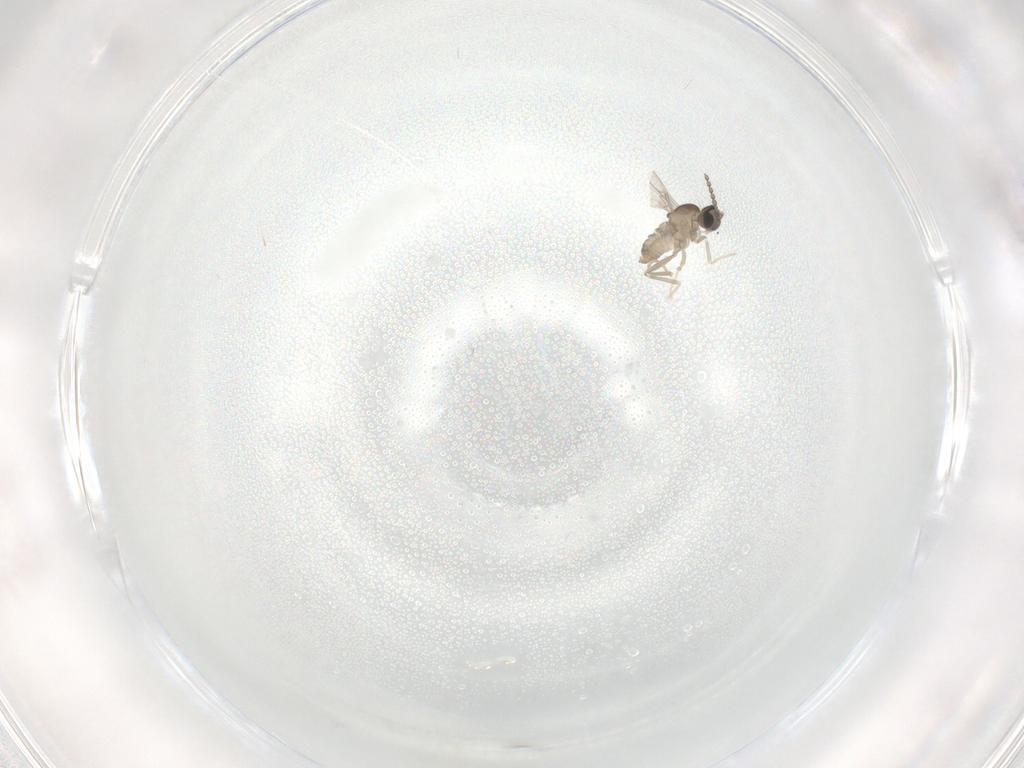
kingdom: Animalia
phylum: Arthropoda
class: Insecta
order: Diptera
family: Cecidomyiidae
